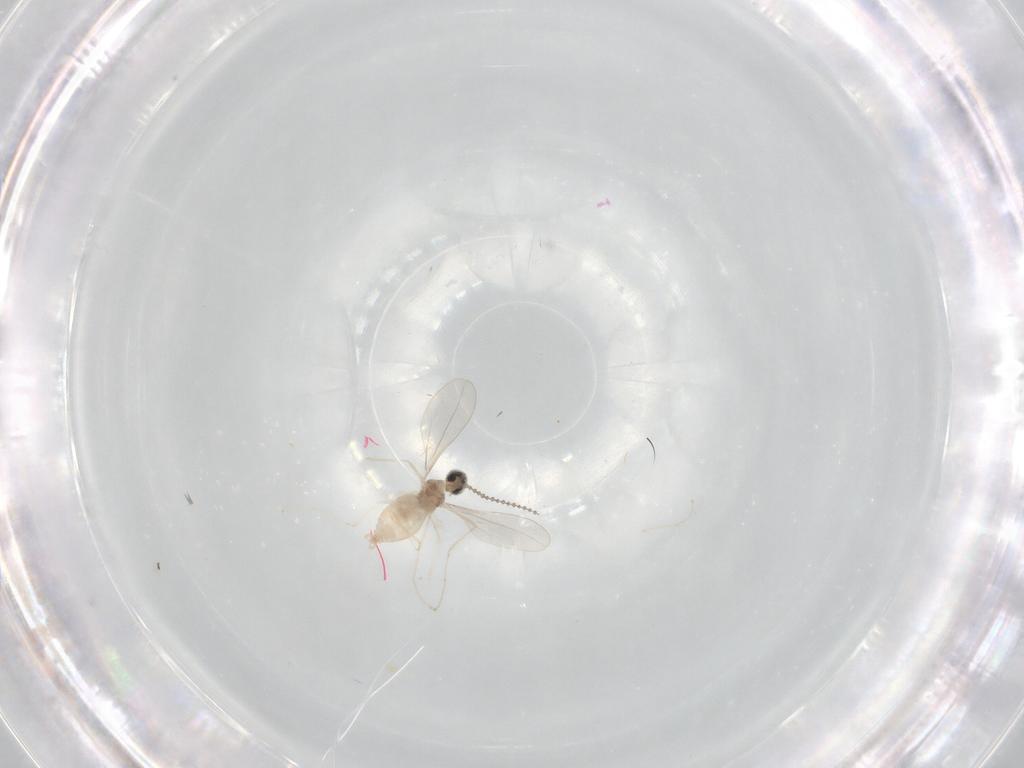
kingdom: Animalia
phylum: Arthropoda
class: Insecta
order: Diptera
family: Cecidomyiidae
